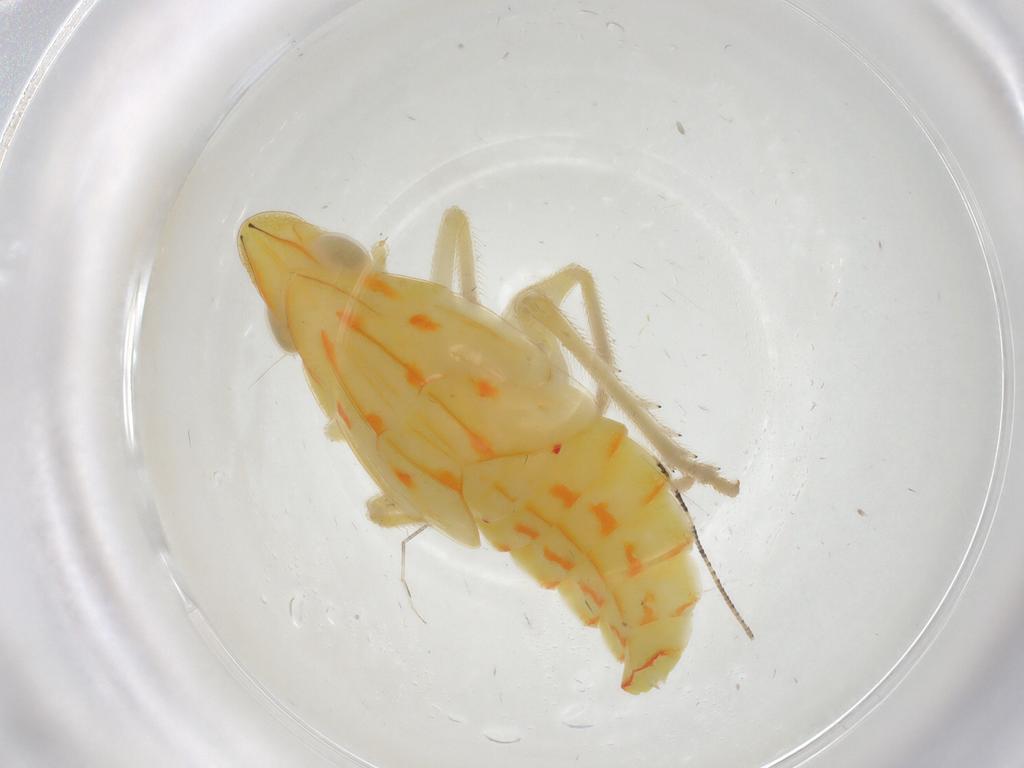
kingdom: Animalia
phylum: Arthropoda
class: Insecta
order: Hemiptera
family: Tropiduchidae
